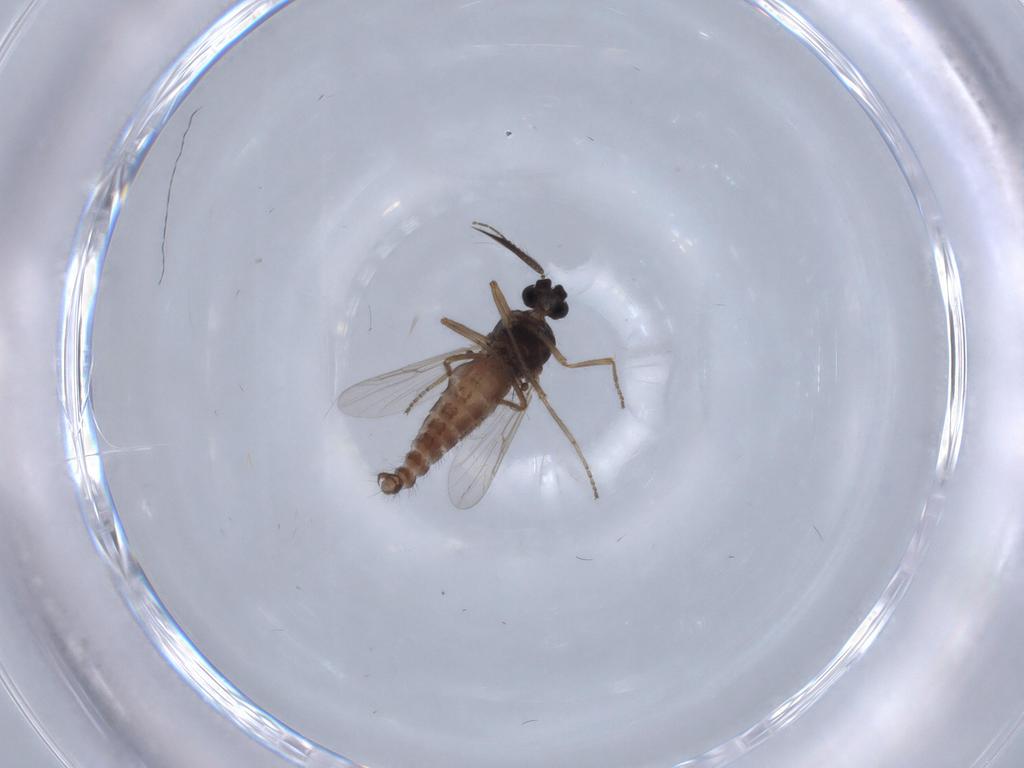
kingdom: Animalia
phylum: Arthropoda
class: Insecta
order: Diptera
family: Ceratopogonidae
